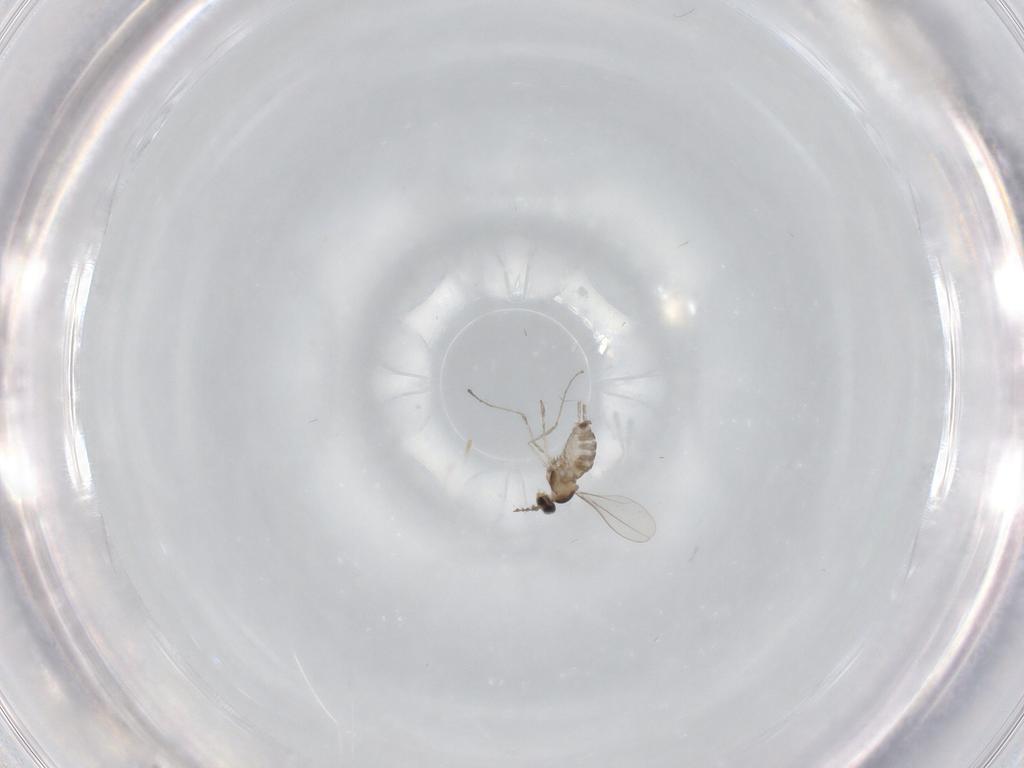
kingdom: Animalia
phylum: Arthropoda
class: Insecta
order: Diptera
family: Cecidomyiidae
